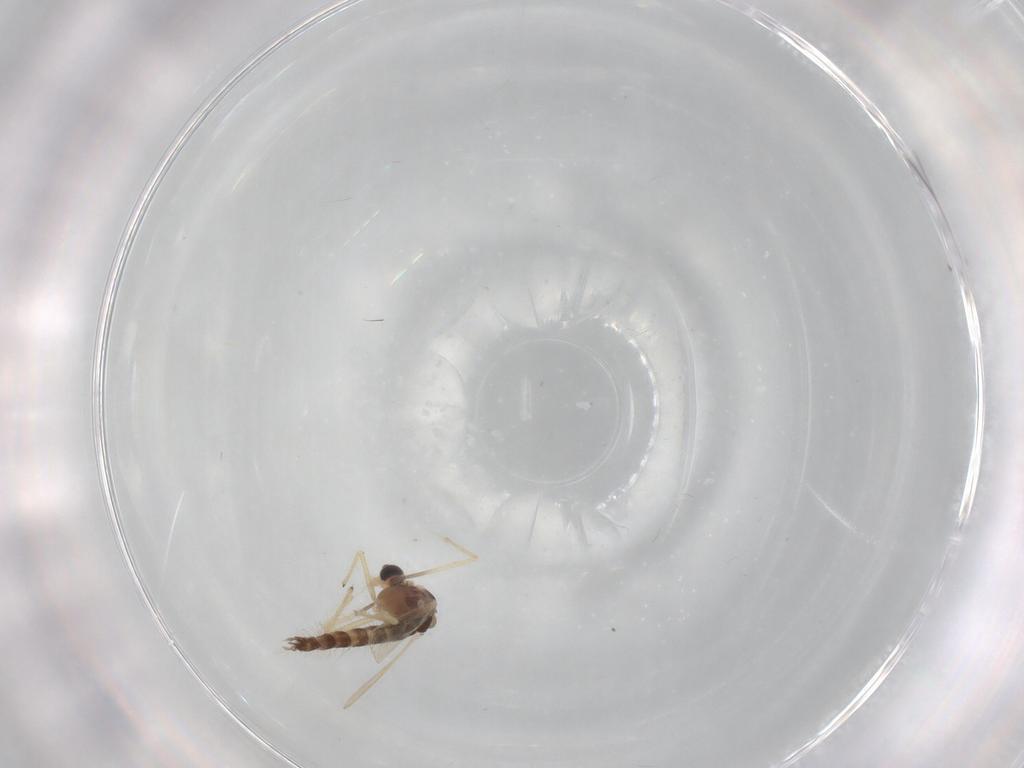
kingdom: Animalia
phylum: Arthropoda
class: Insecta
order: Diptera
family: Chironomidae
